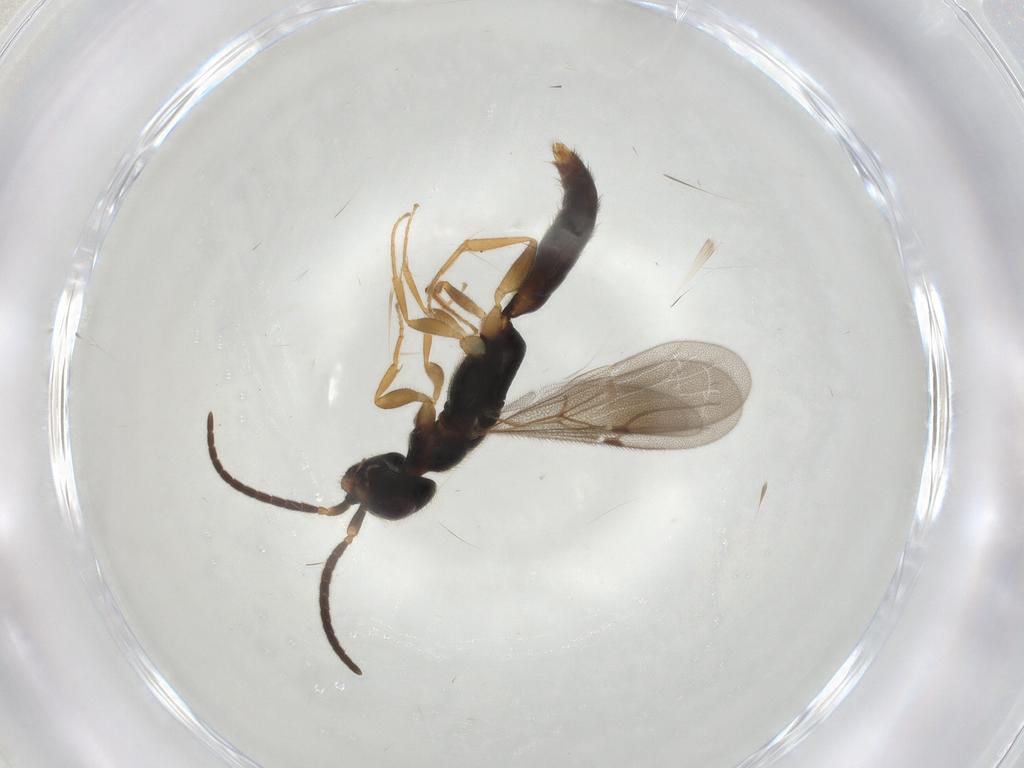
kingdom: Animalia
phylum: Arthropoda
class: Insecta
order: Hymenoptera
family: Bethylidae
